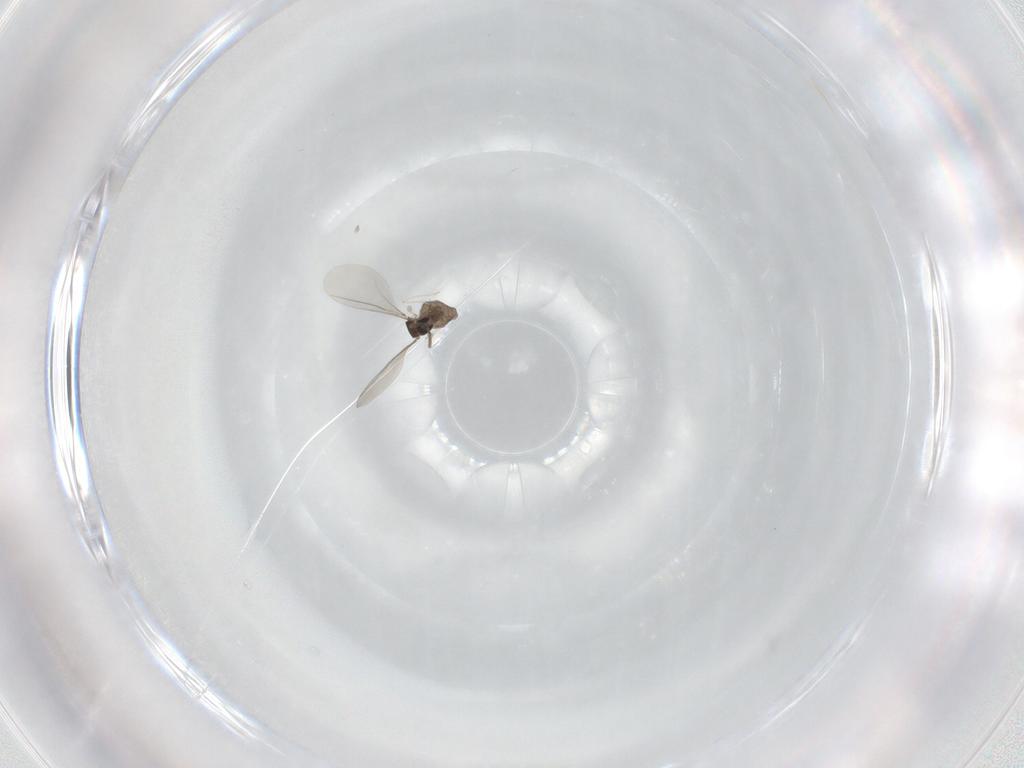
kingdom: Animalia
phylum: Arthropoda
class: Insecta
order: Diptera
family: Cecidomyiidae
